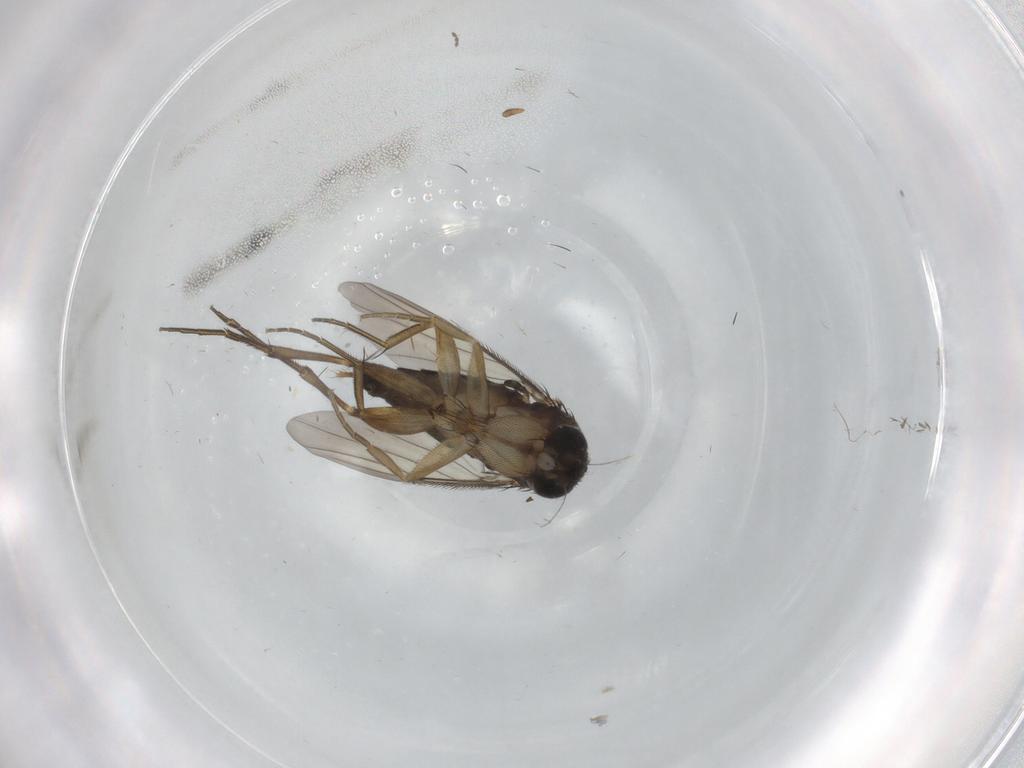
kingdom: Animalia
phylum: Arthropoda
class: Insecta
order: Diptera
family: Phoridae
